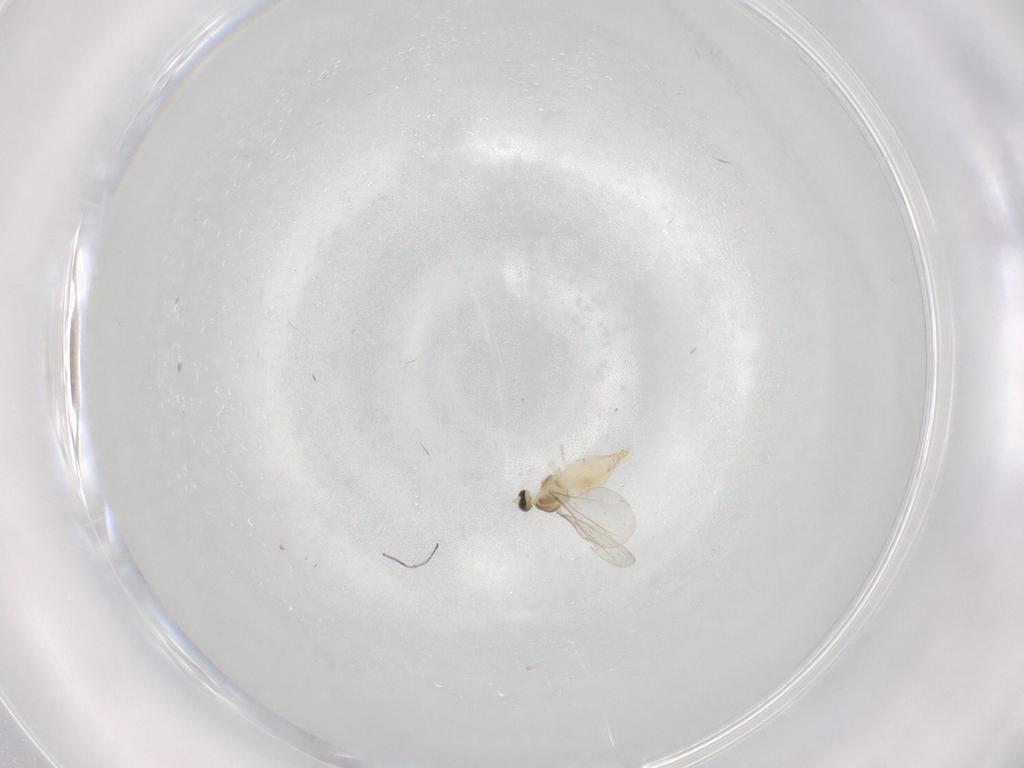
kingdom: Animalia
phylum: Arthropoda
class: Insecta
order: Diptera
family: Cecidomyiidae
